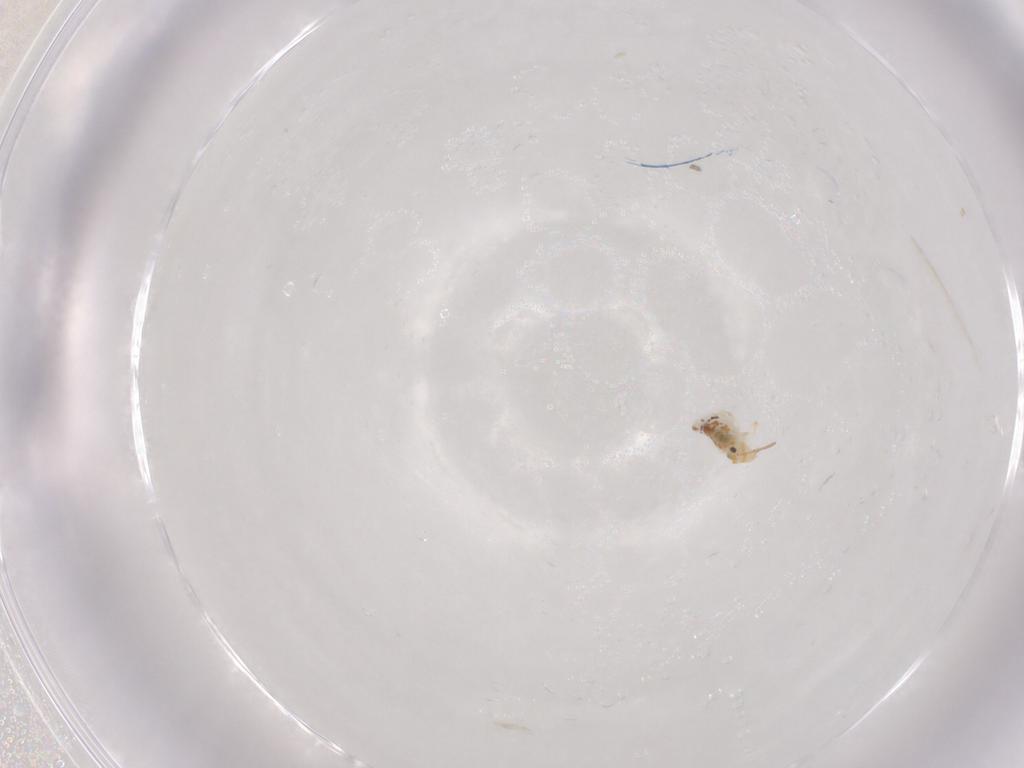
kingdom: Animalia
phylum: Arthropoda
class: Collembola
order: Symphypleona
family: Bourletiellidae
